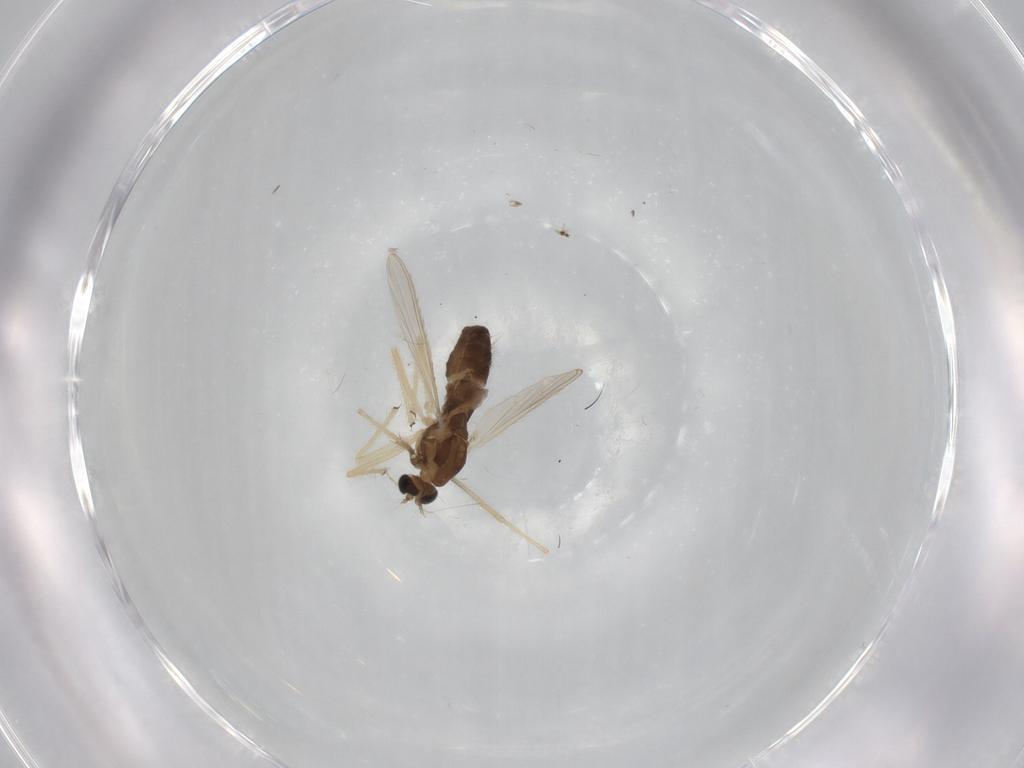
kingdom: Animalia
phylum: Arthropoda
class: Insecta
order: Diptera
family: Chironomidae
